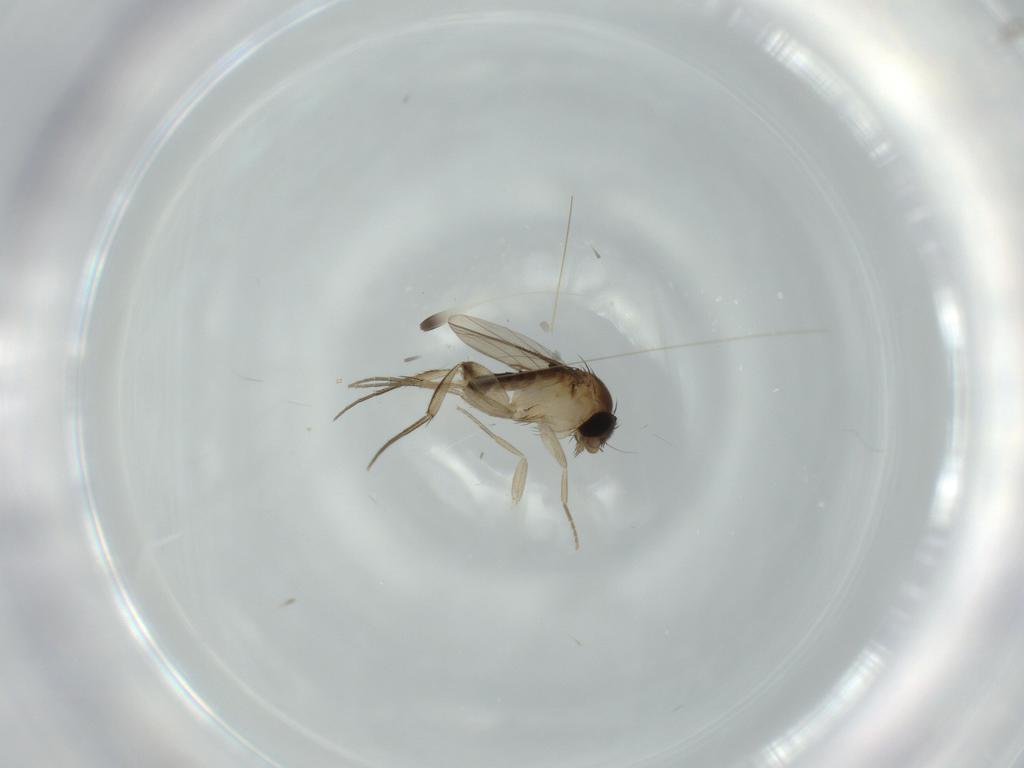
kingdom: Animalia
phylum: Arthropoda
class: Insecta
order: Diptera
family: Phoridae
